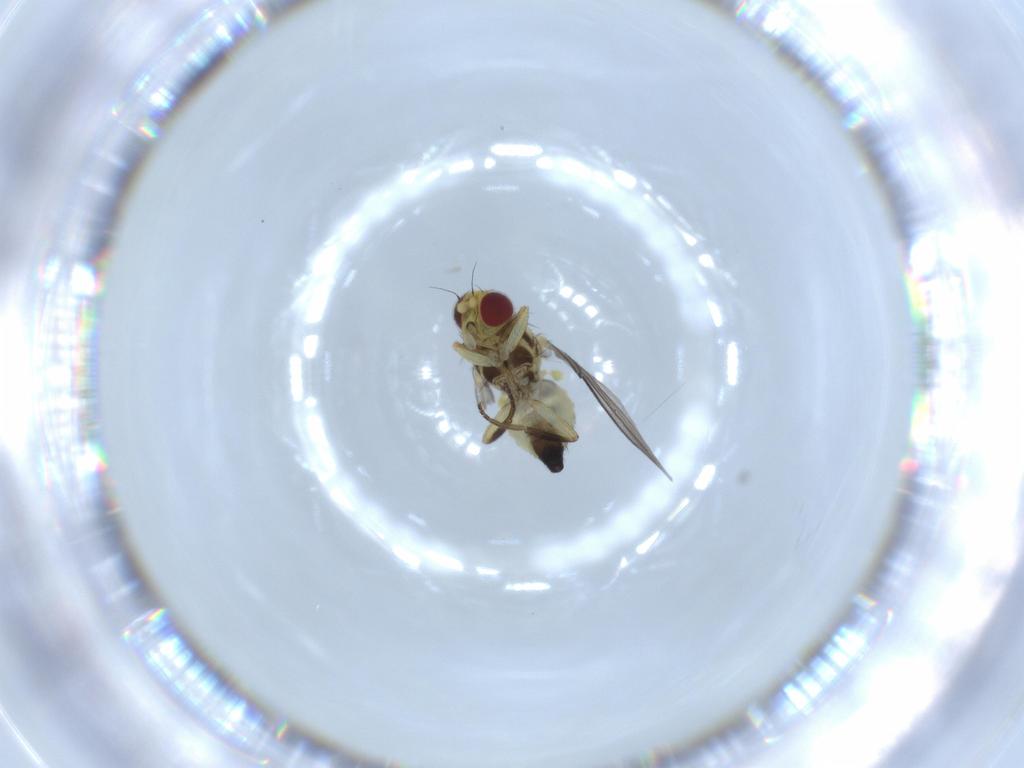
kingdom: Animalia
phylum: Arthropoda
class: Insecta
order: Diptera
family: Agromyzidae
